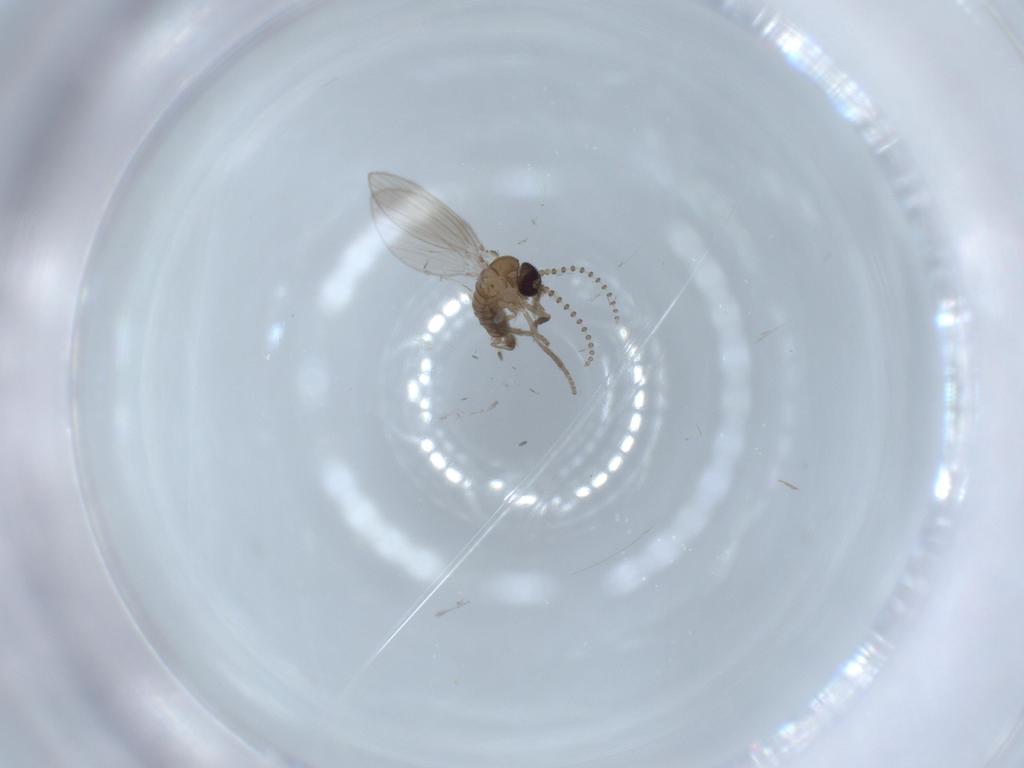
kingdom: Animalia
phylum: Arthropoda
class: Insecta
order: Diptera
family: Psychodidae
